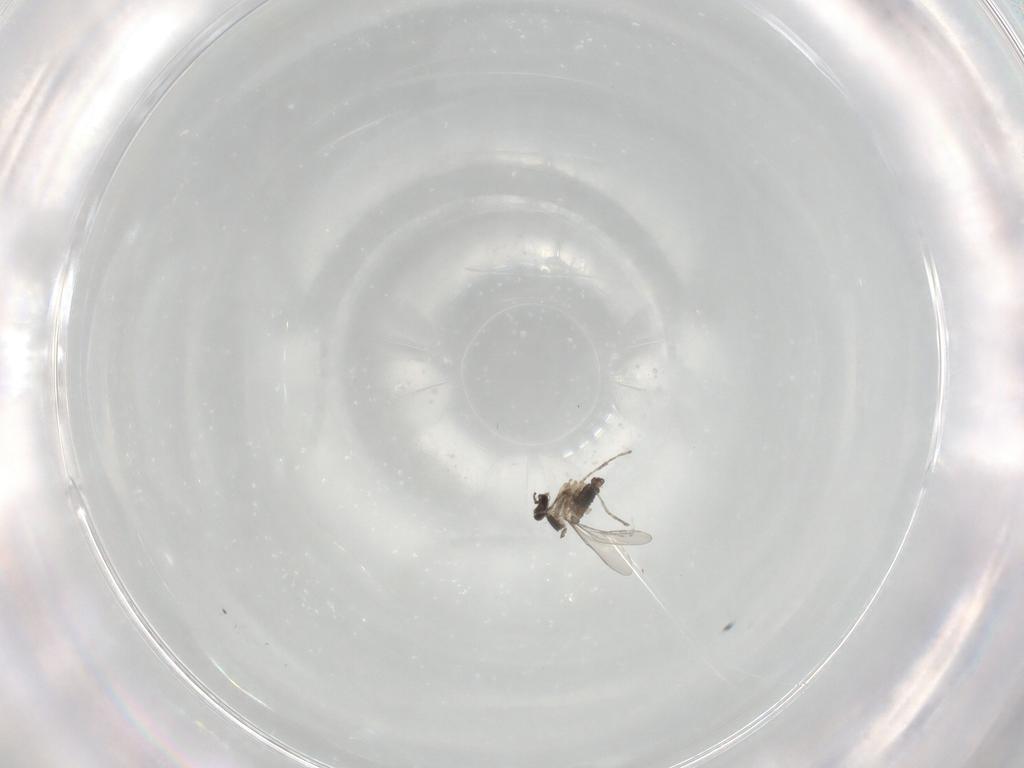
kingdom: Animalia
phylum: Arthropoda
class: Insecta
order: Diptera
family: Cecidomyiidae
